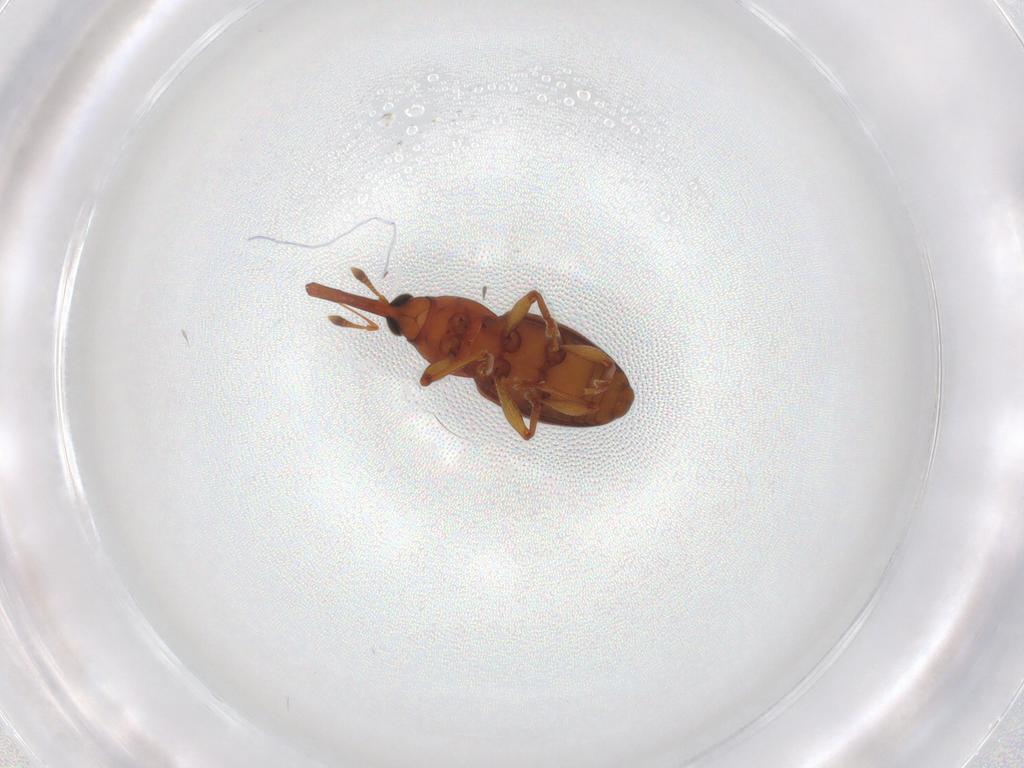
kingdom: Animalia
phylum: Arthropoda
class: Insecta
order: Coleoptera
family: Curculionidae
